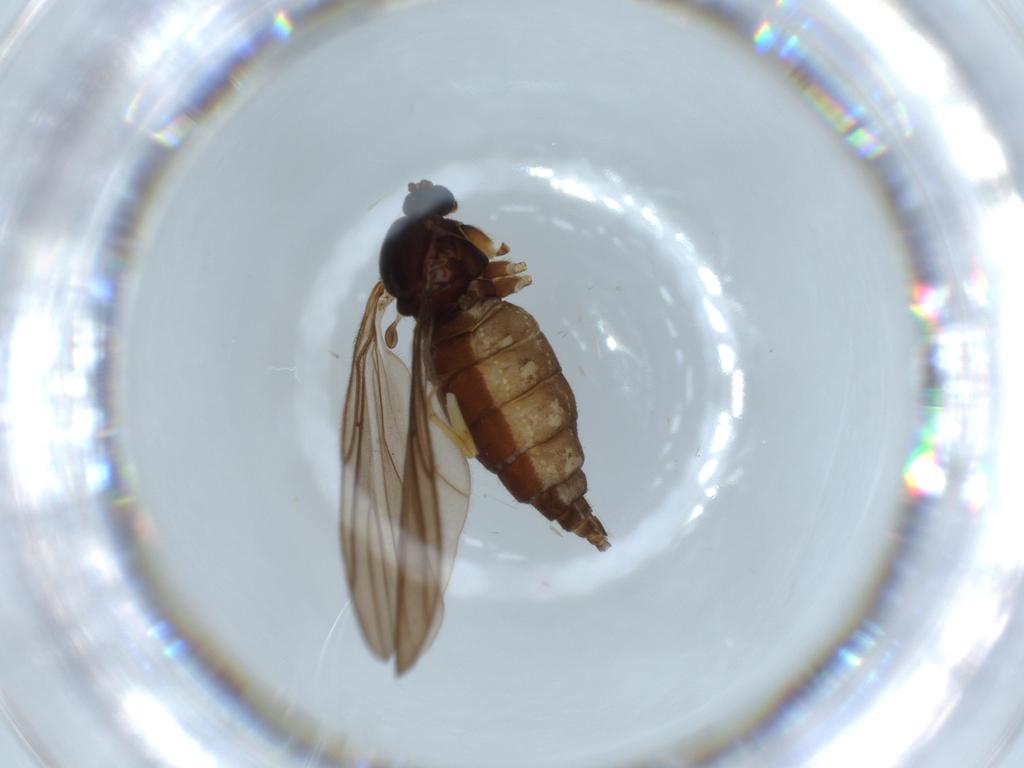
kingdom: Animalia
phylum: Arthropoda
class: Insecta
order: Diptera
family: Sciaridae
